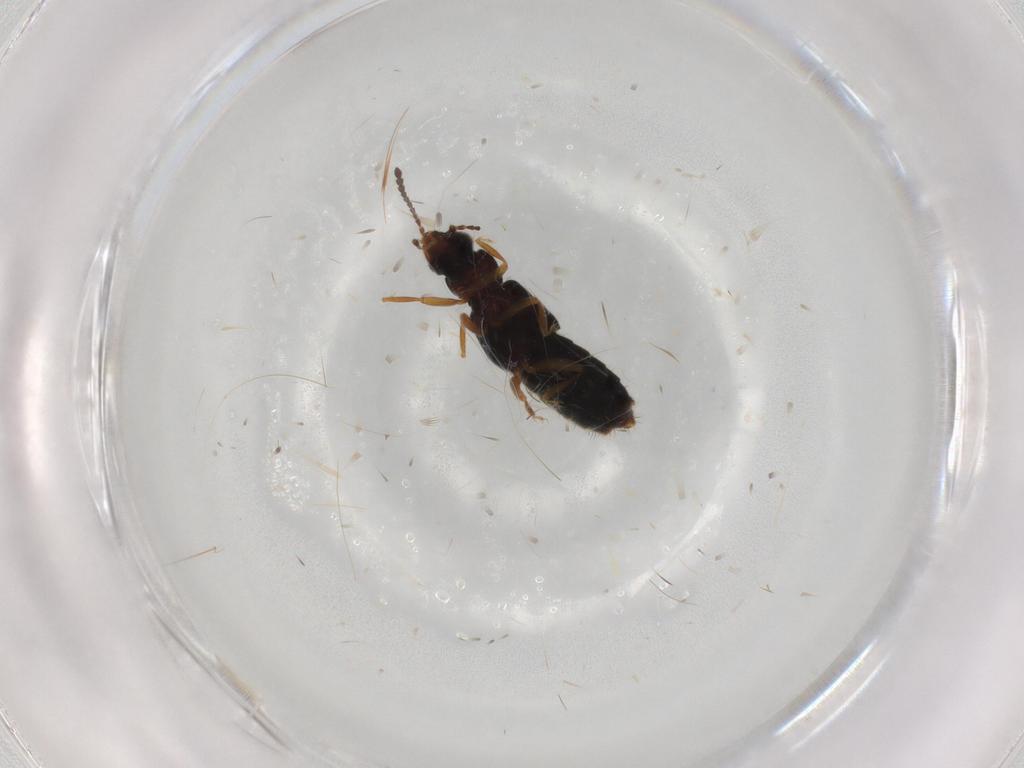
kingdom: Animalia
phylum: Arthropoda
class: Insecta
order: Coleoptera
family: Staphylinidae
